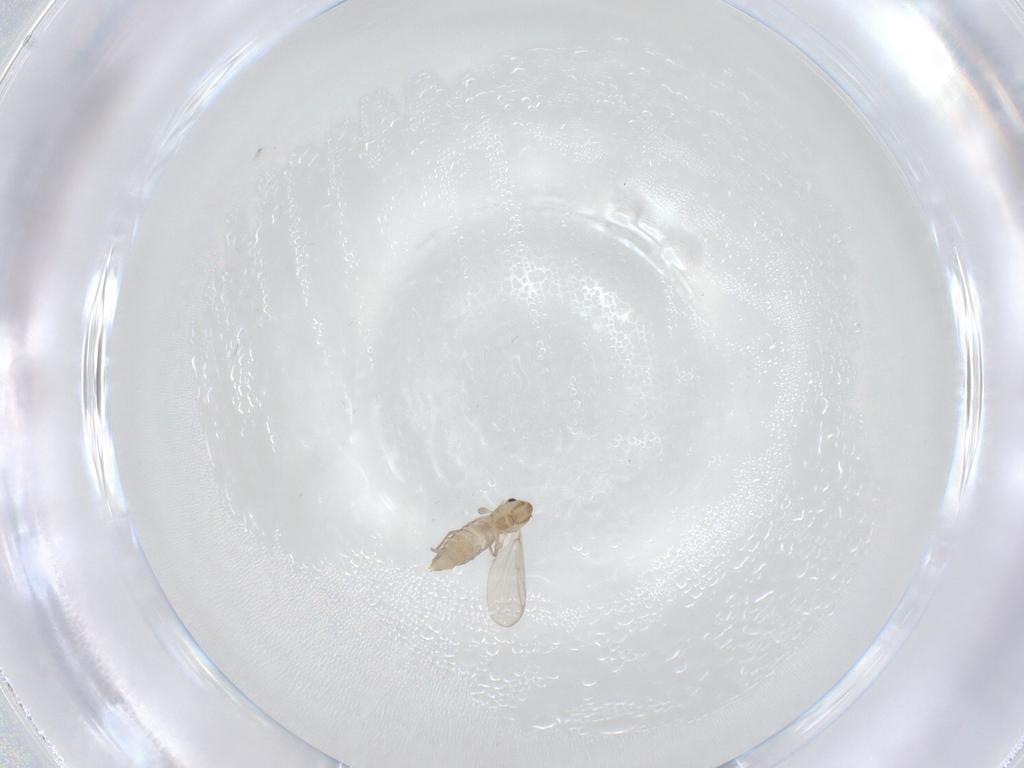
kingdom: Animalia
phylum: Arthropoda
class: Insecta
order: Diptera
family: Chironomidae
